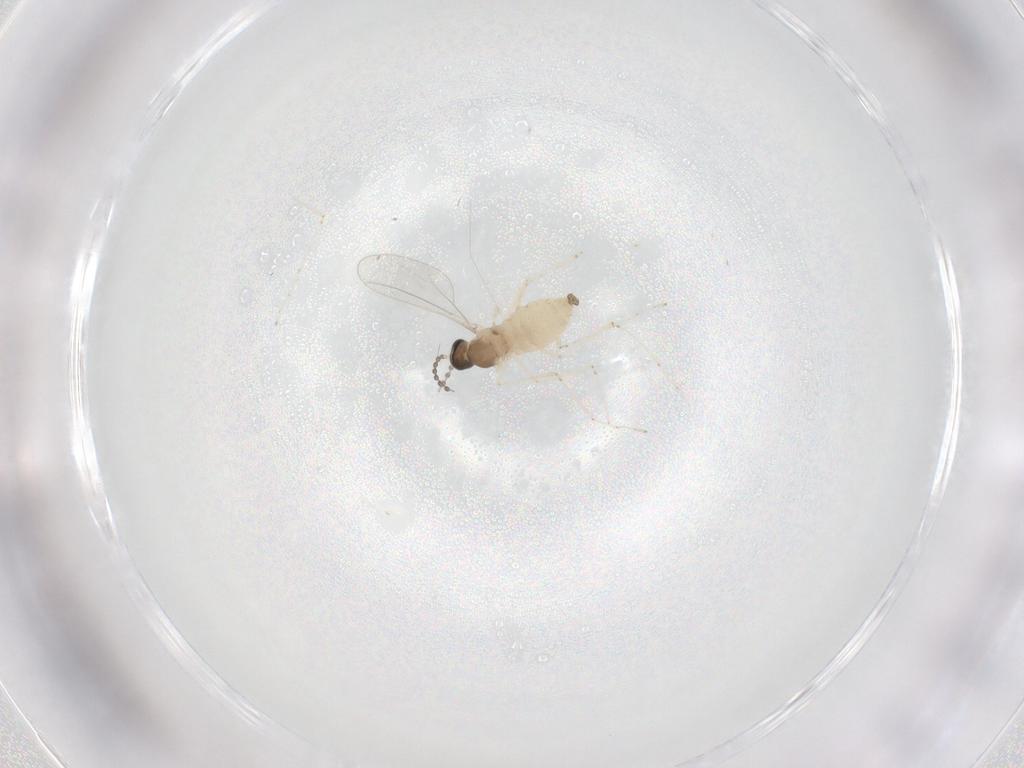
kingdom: Animalia
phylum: Arthropoda
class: Insecta
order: Diptera
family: Cecidomyiidae
